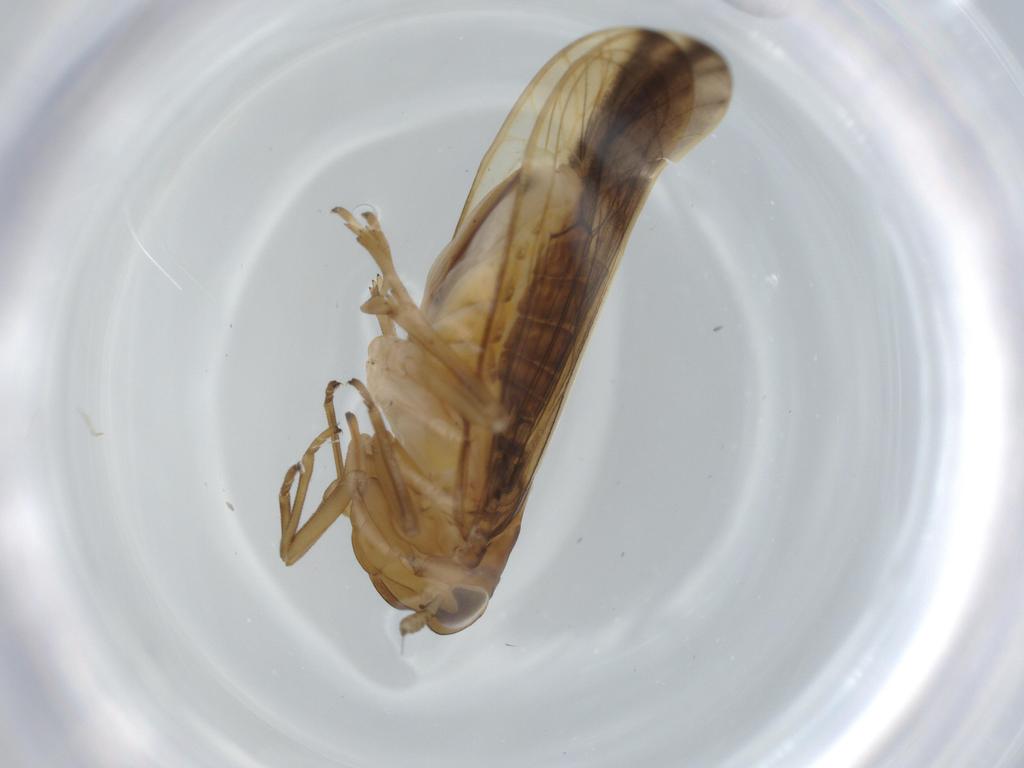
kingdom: Animalia
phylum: Arthropoda
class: Insecta
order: Hemiptera
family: Delphacidae
